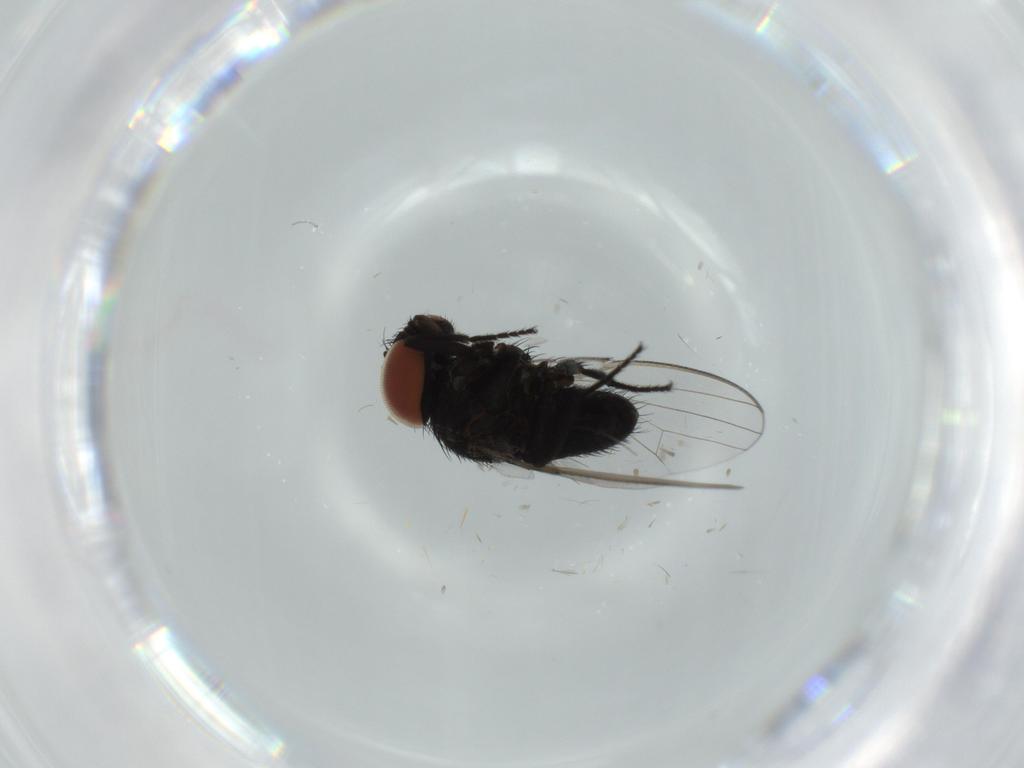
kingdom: Animalia
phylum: Arthropoda
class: Insecta
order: Diptera
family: Milichiidae
